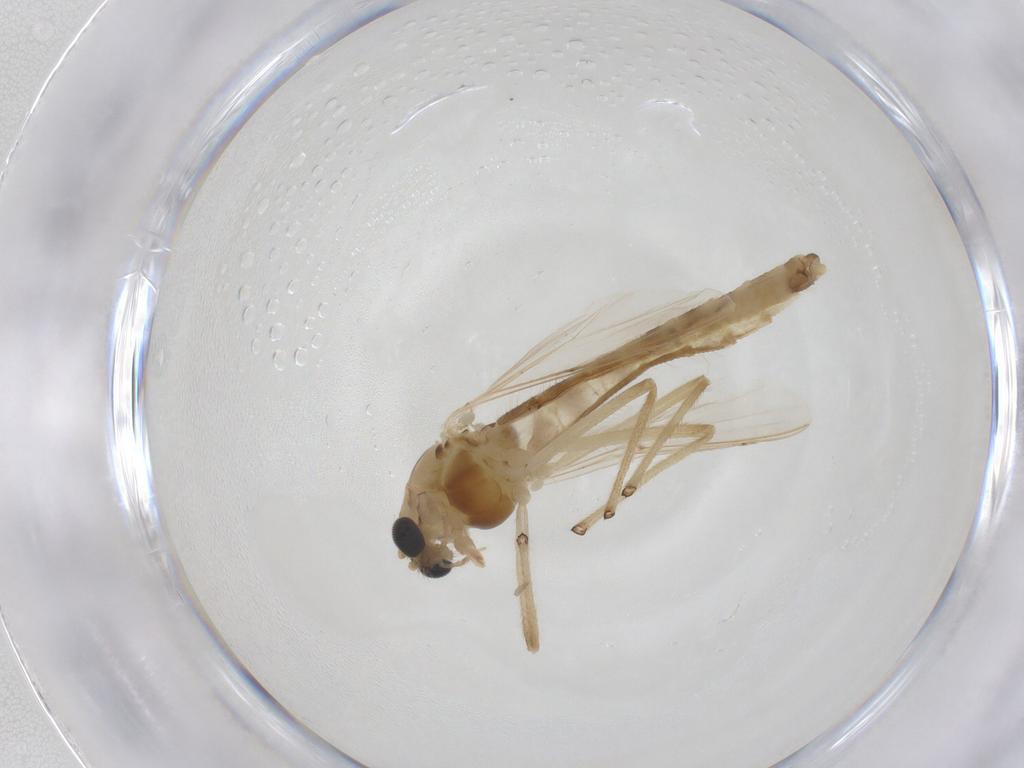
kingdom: Animalia
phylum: Arthropoda
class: Insecta
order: Diptera
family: Chironomidae
